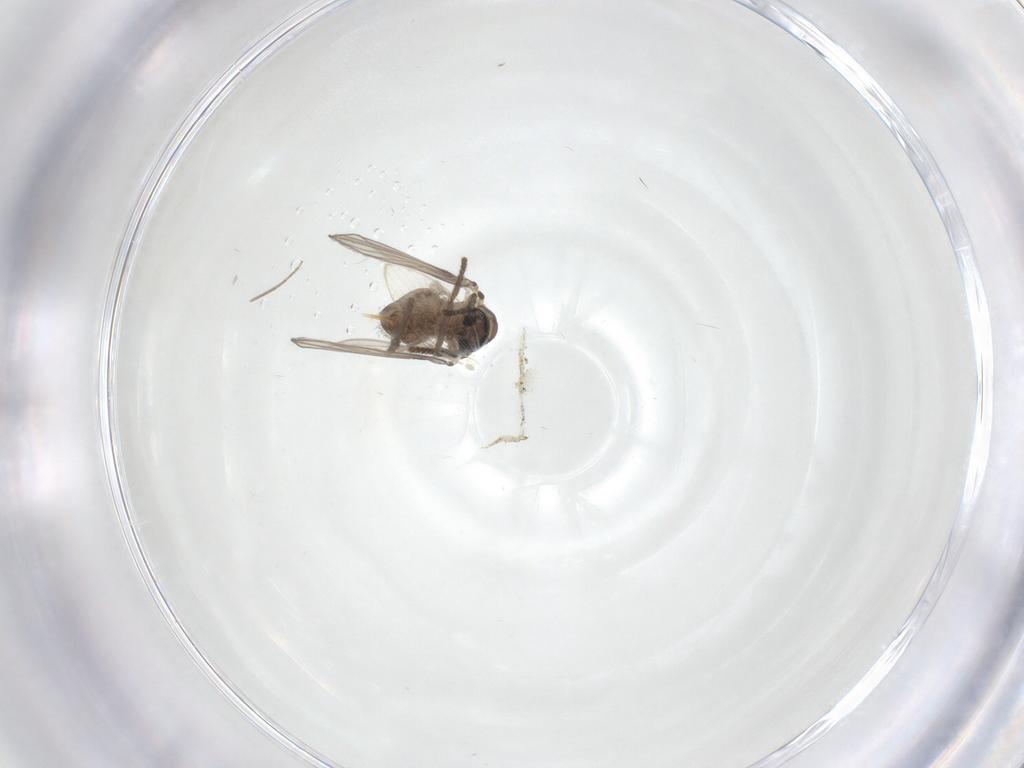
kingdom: Animalia
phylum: Arthropoda
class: Insecta
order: Diptera
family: Psychodidae
